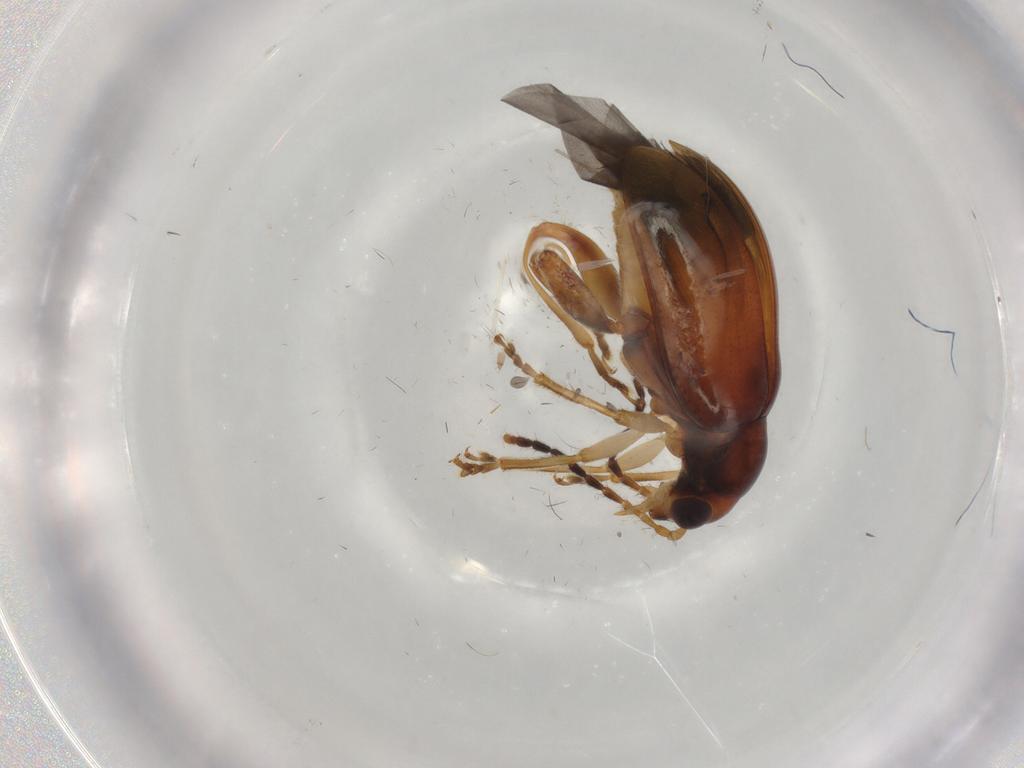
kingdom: Animalia
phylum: Arthropoda
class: Insecta
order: Coleoptera
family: Chrysomelidae
